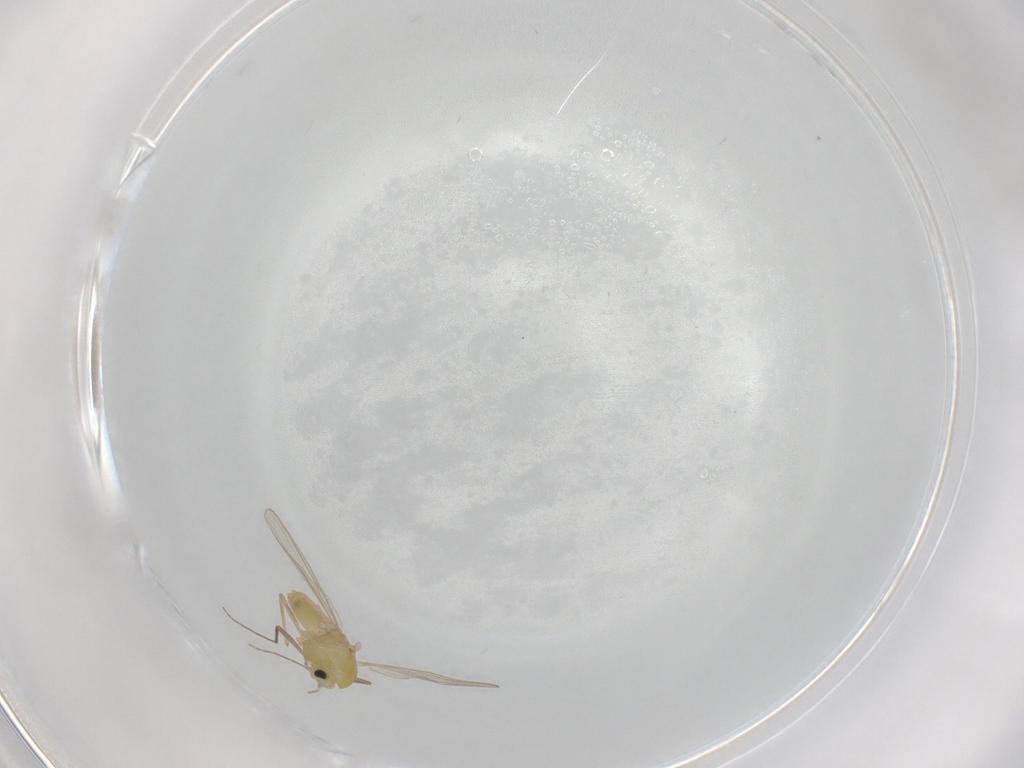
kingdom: Animalia
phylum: Arthropoda
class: Insecta
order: Diptera
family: Chironomidae
